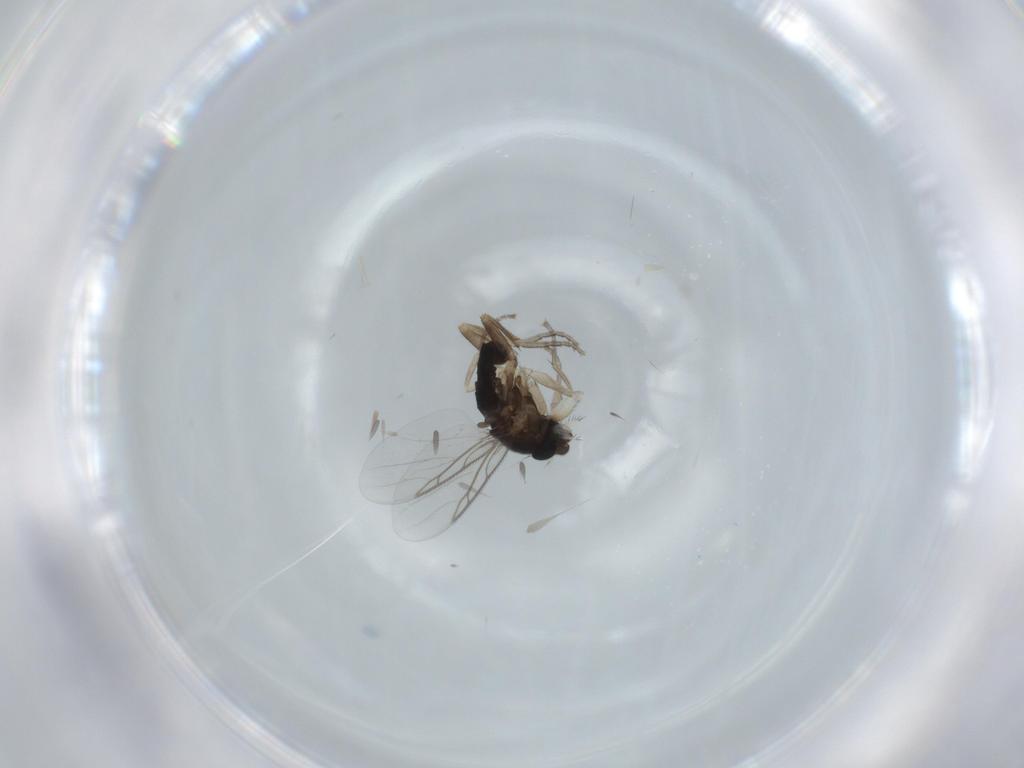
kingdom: Animalia
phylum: Arthropoda
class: Insecta
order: Diptera
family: Phoridae
